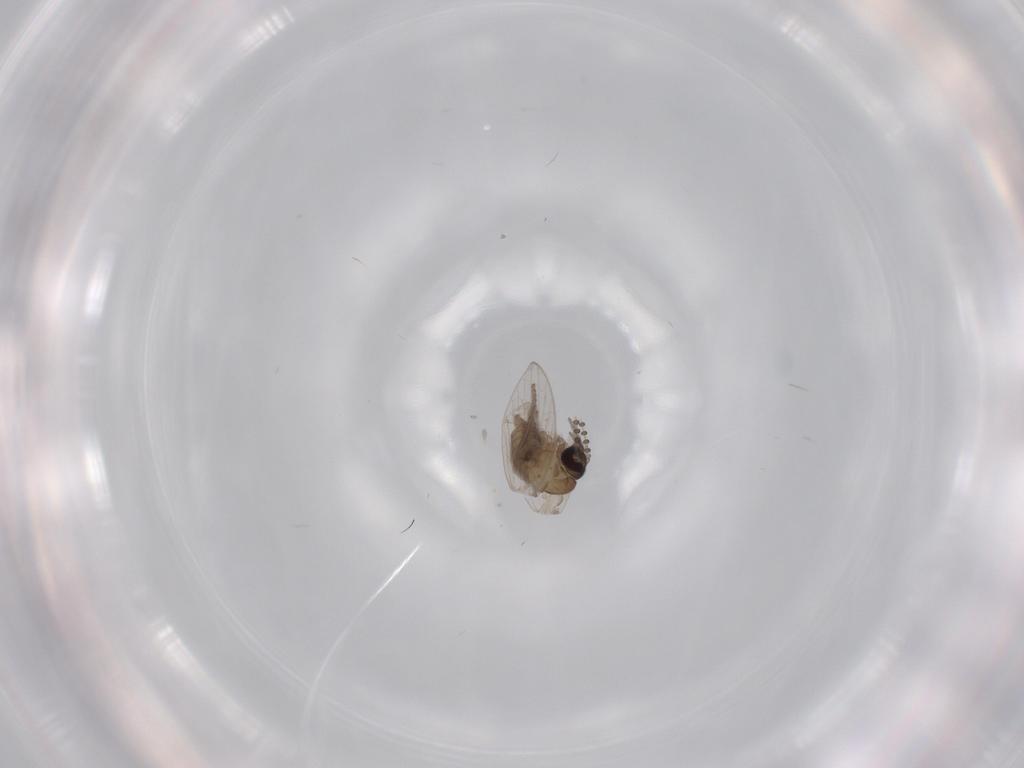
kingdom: Animalia
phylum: Arthropoda
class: Insecta
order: Diptera
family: Psychodidae
